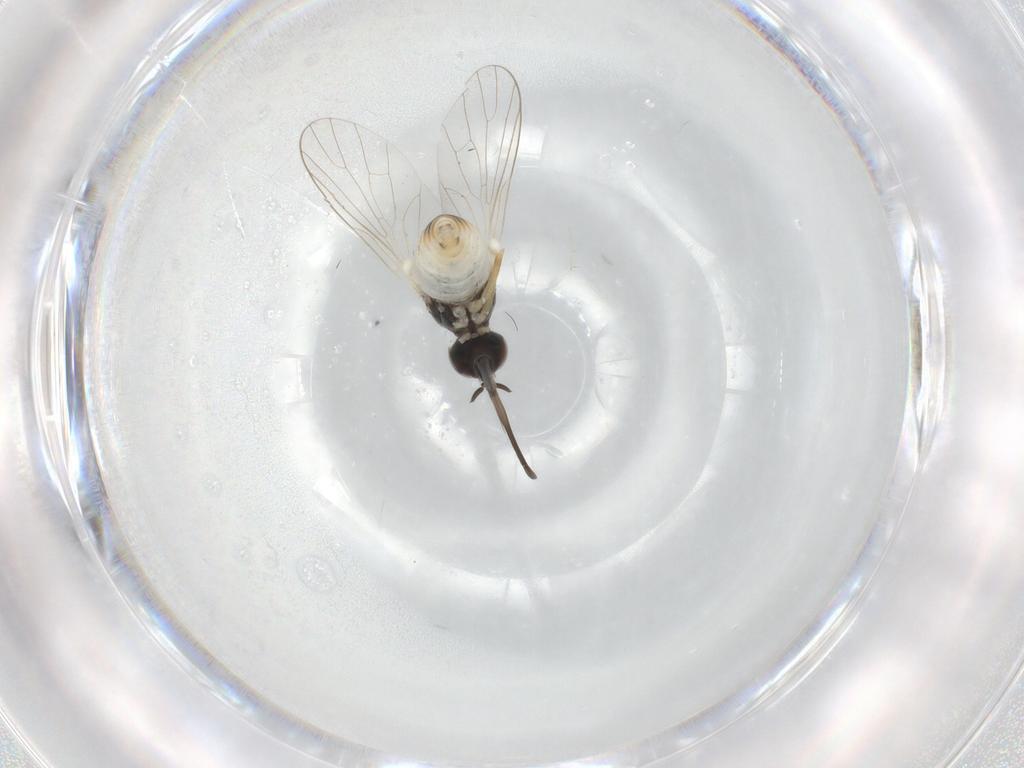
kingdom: Animalia
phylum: Arthropoda
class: Insecta
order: Diptera
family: Bombyliidae
